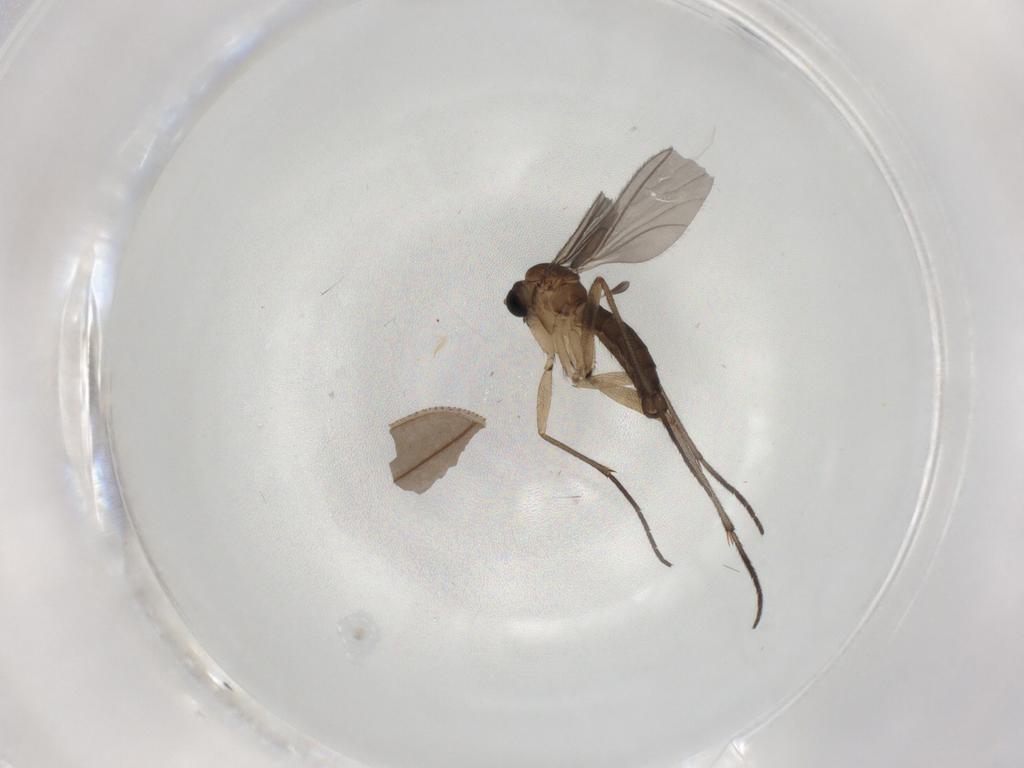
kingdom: Animalia
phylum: Arthropoda
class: Insecta
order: Diptera
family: Sciaridae
